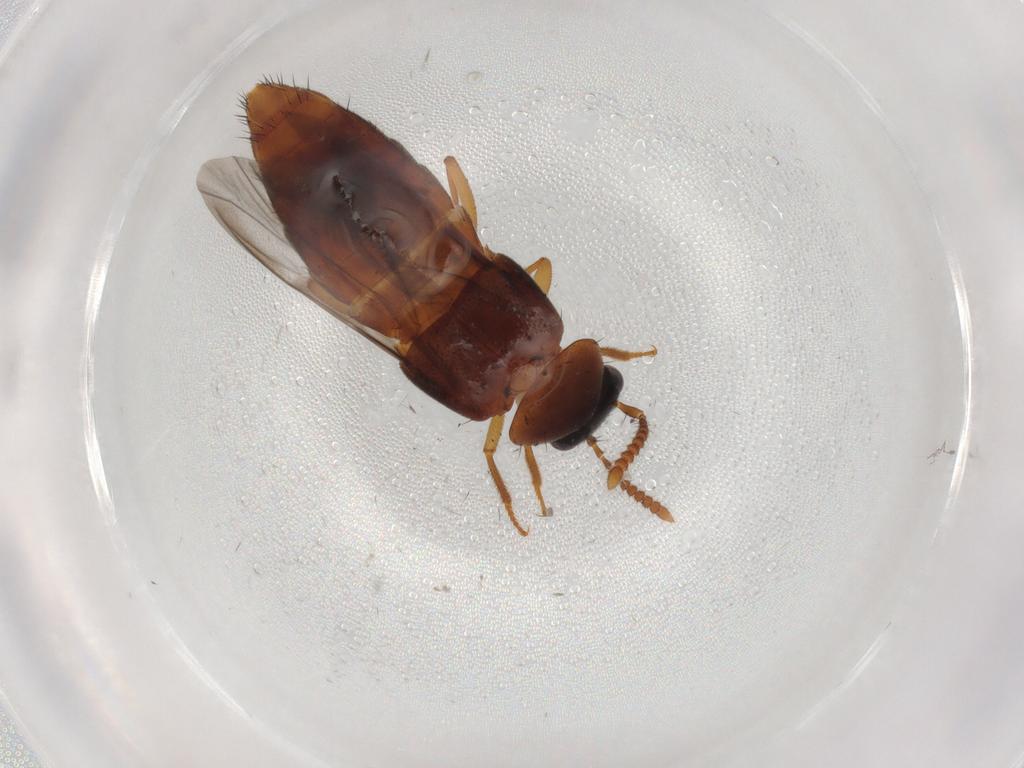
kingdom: Animalia
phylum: Arthropoda
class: Insecta
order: Coleoptera
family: Staphylinidae
